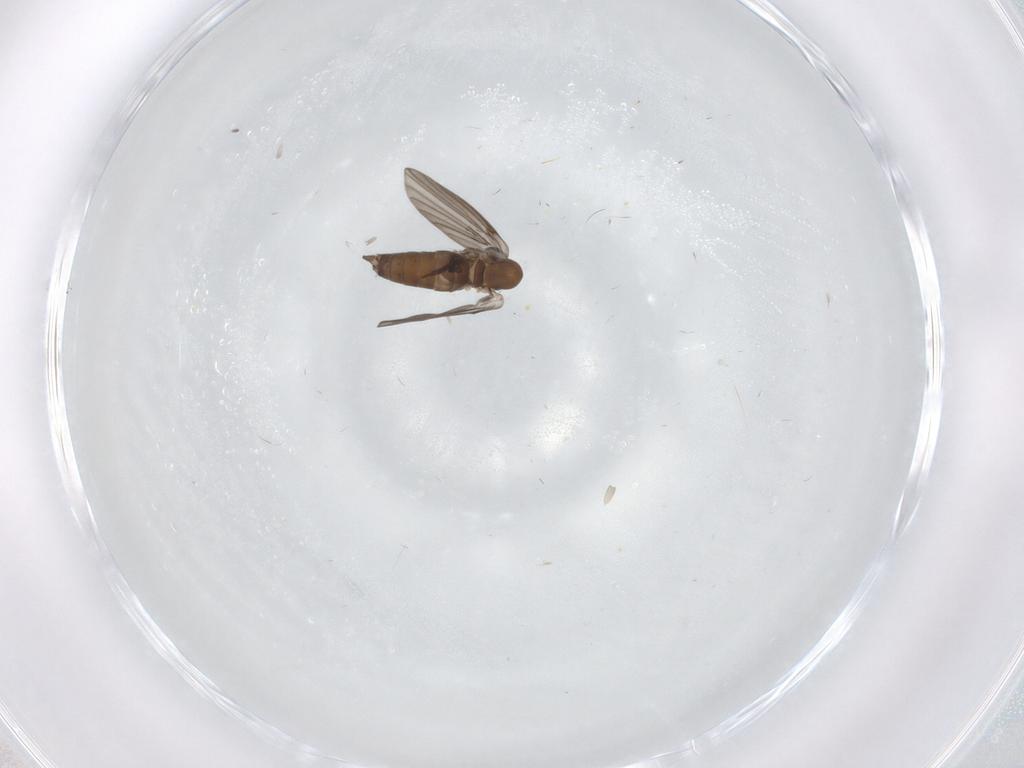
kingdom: Animalia
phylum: Arthropoda
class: Insecta
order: Diptera
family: Cecidomyiidae
